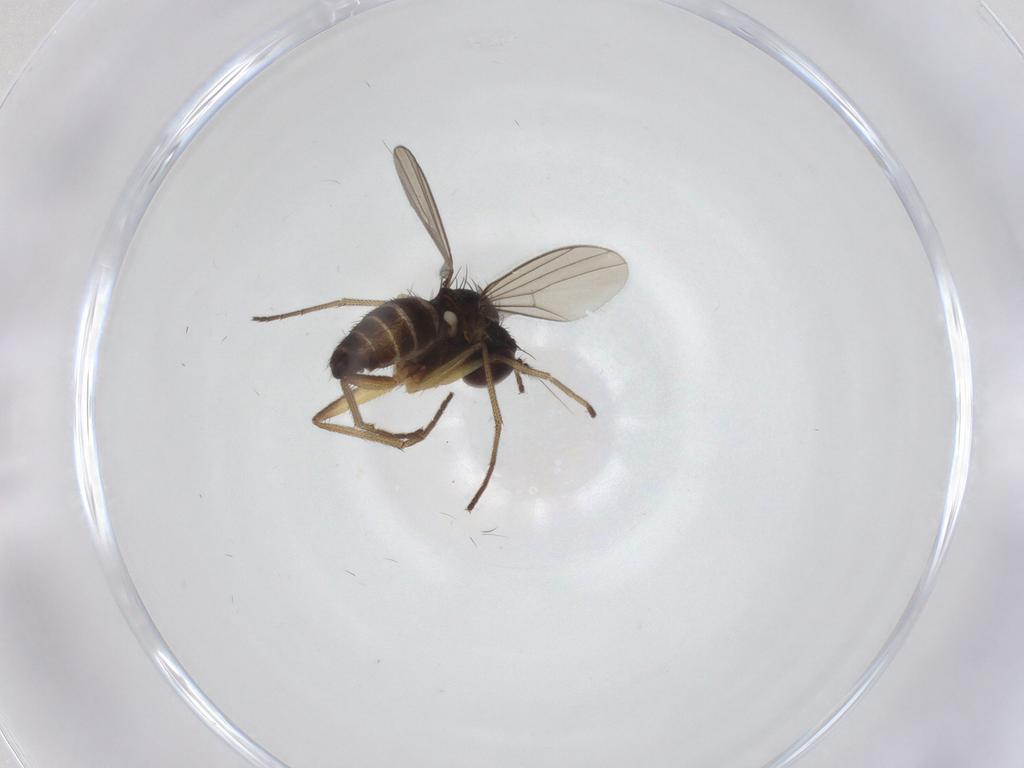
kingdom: Animalia
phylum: Arthropoda
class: Insecta
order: Diptera
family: Dolichopodidae
